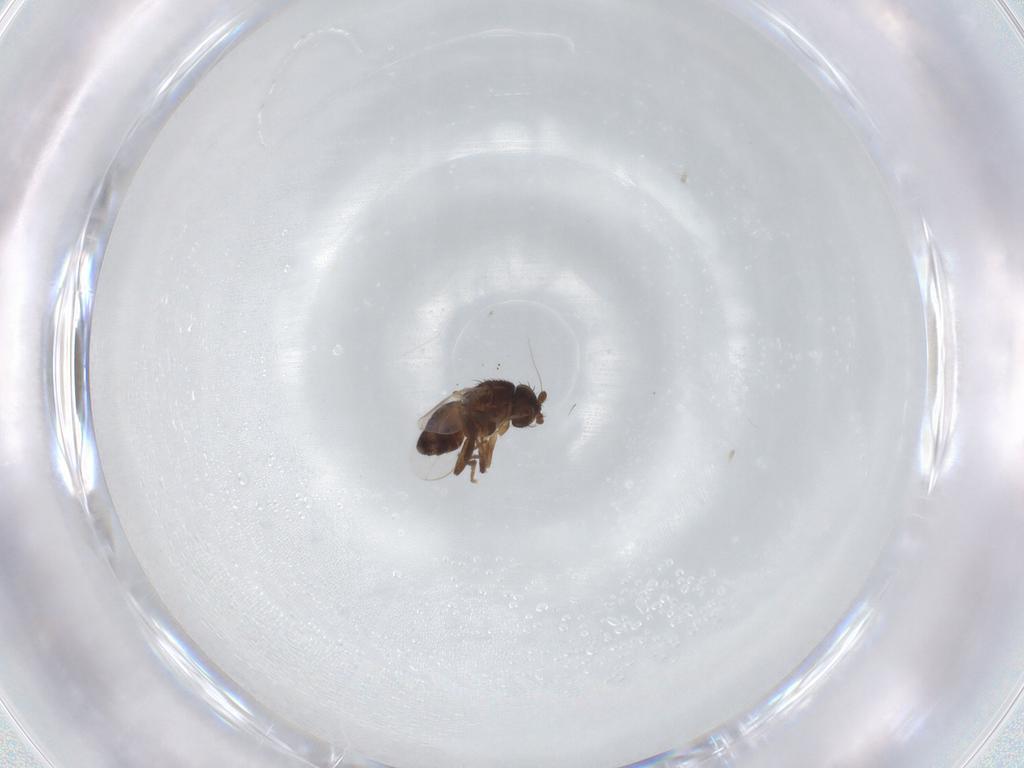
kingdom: Animalia
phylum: Arthropoda
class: Insecta
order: Diptera
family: Sphaeroceridae
